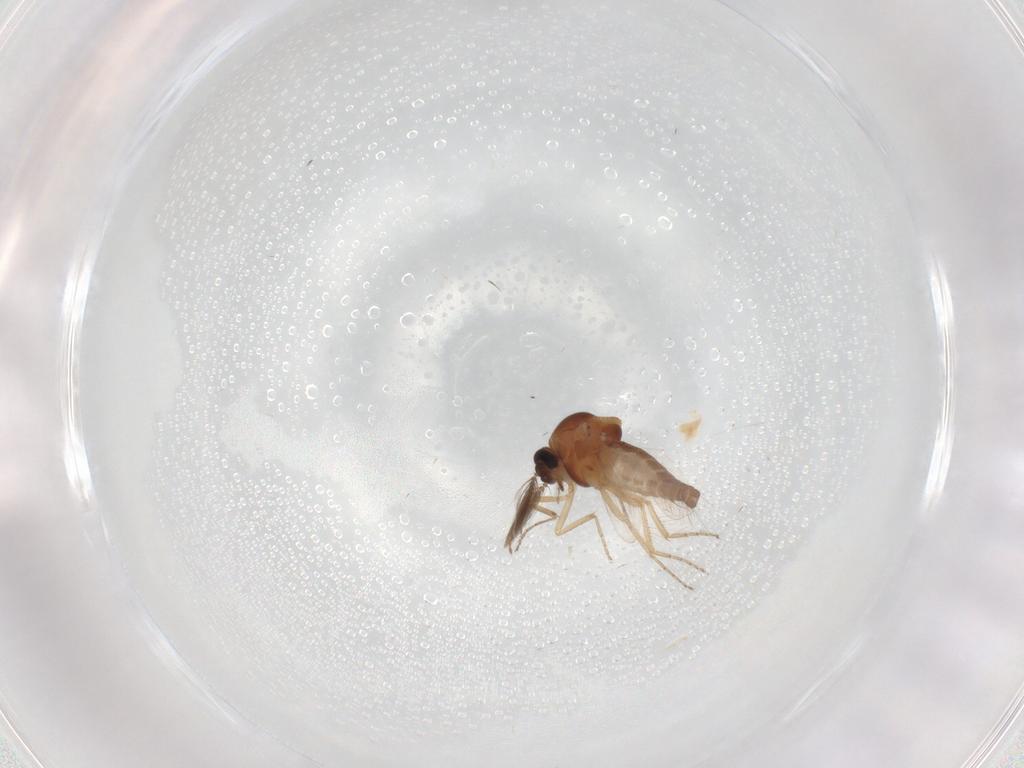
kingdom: Animalia
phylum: Arthropoda
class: Insecta
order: Diptera
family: Ceratopogonidae
